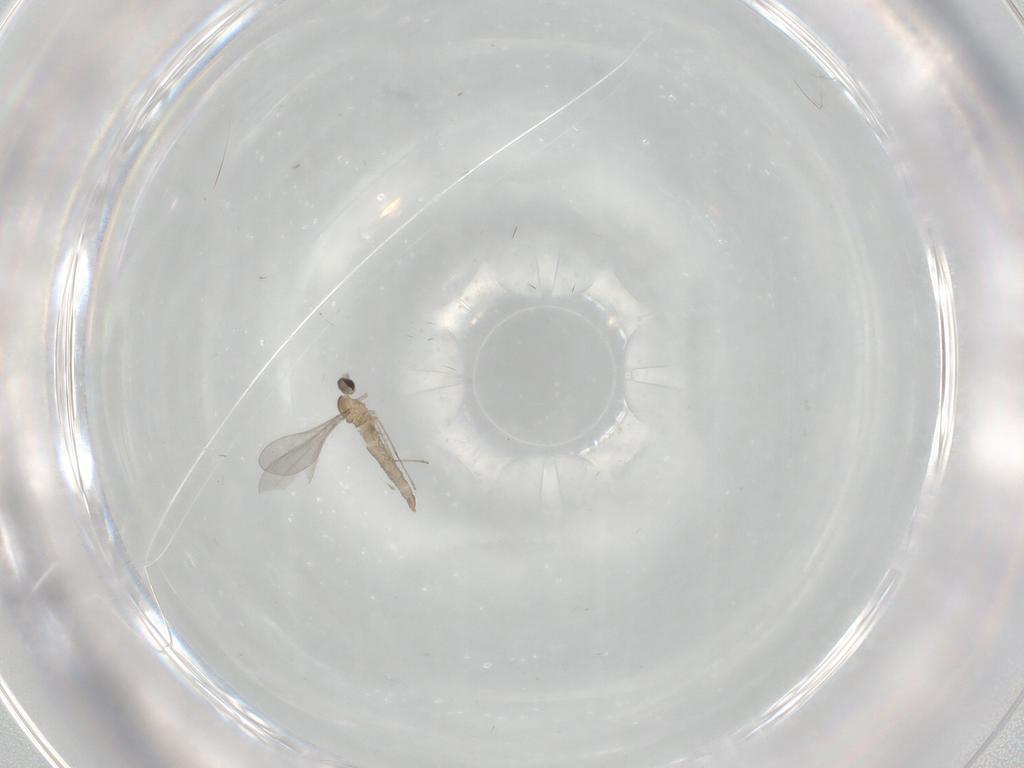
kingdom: Animalia
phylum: Arthropoda
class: Insecta
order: Diptera
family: Cecidomyiidae
